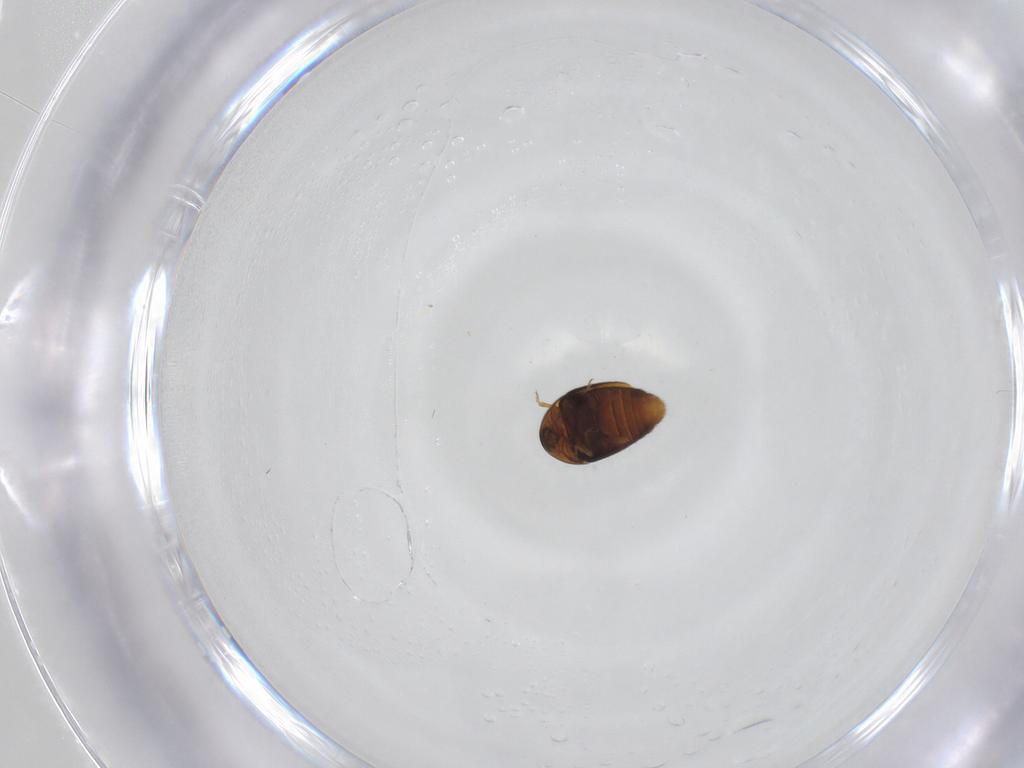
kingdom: Animalia
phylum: Arthropoda
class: Insecta
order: Coleoptera
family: Corylophidae
